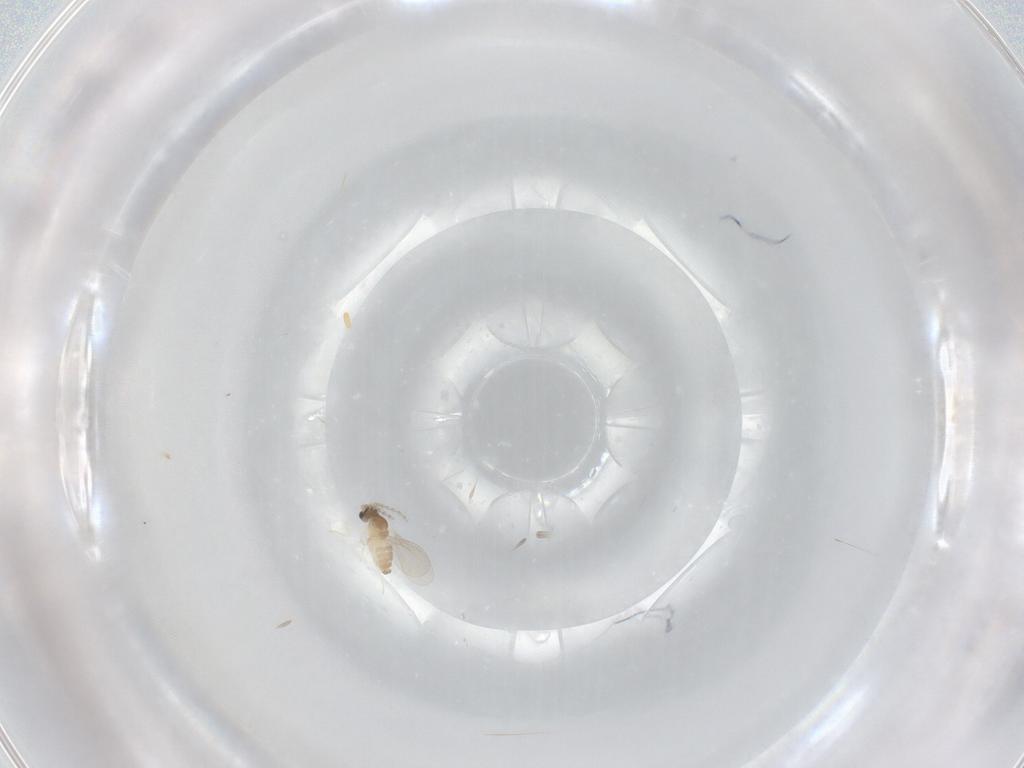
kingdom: Animalia
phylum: Arthropoda
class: Insecta
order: Diptera
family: Cecidomyiidae
